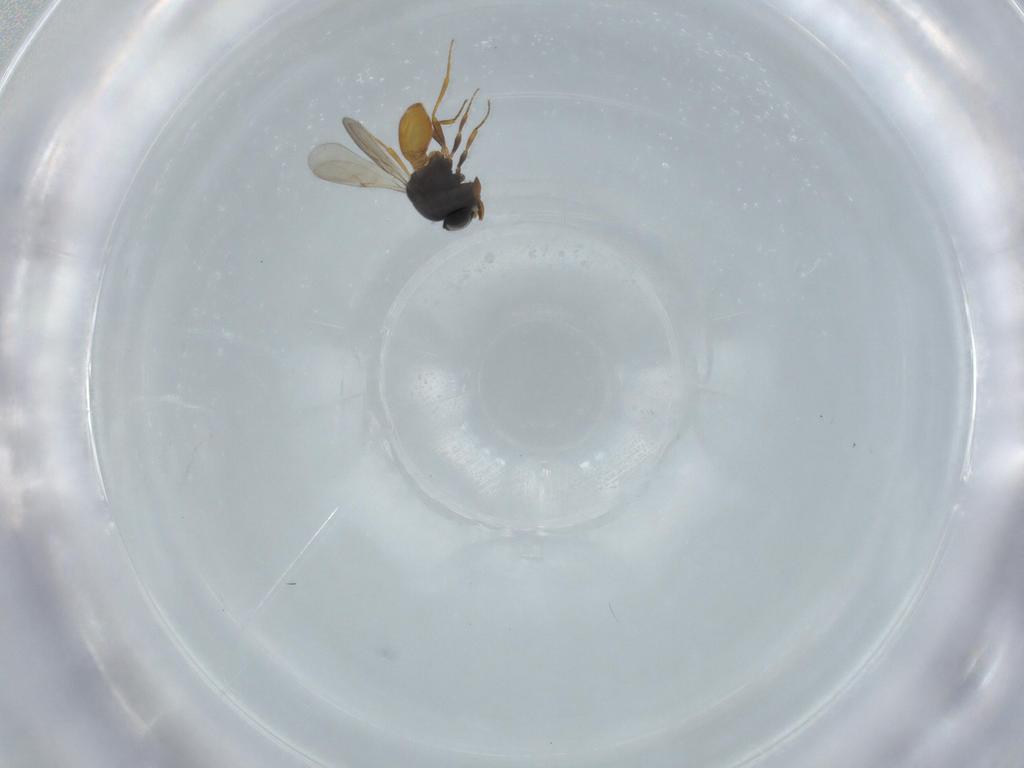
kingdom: Animalia
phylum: Arthropoda
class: Insecta
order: Hymenoptera
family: Scelionidae
